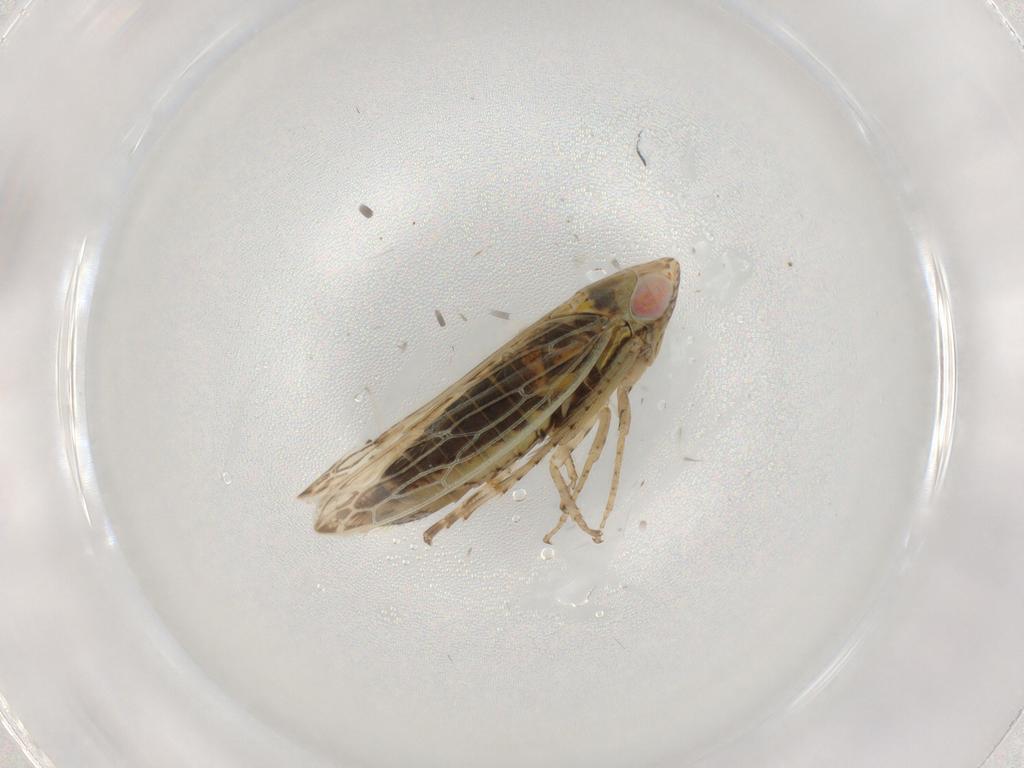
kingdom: Animalia
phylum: Arthropoda
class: Insecta
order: Hemiptera
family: Cicadellidae
